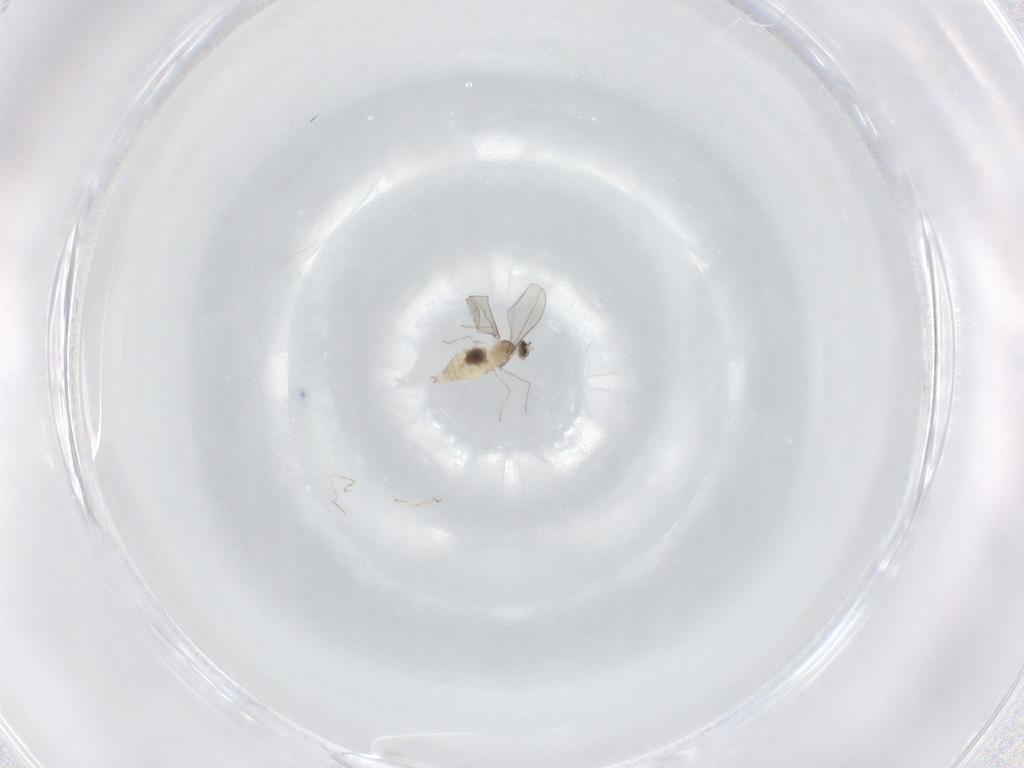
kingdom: Animalia
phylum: Arthropoda
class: Insecta
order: Diptera
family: Cecidomyiidae
